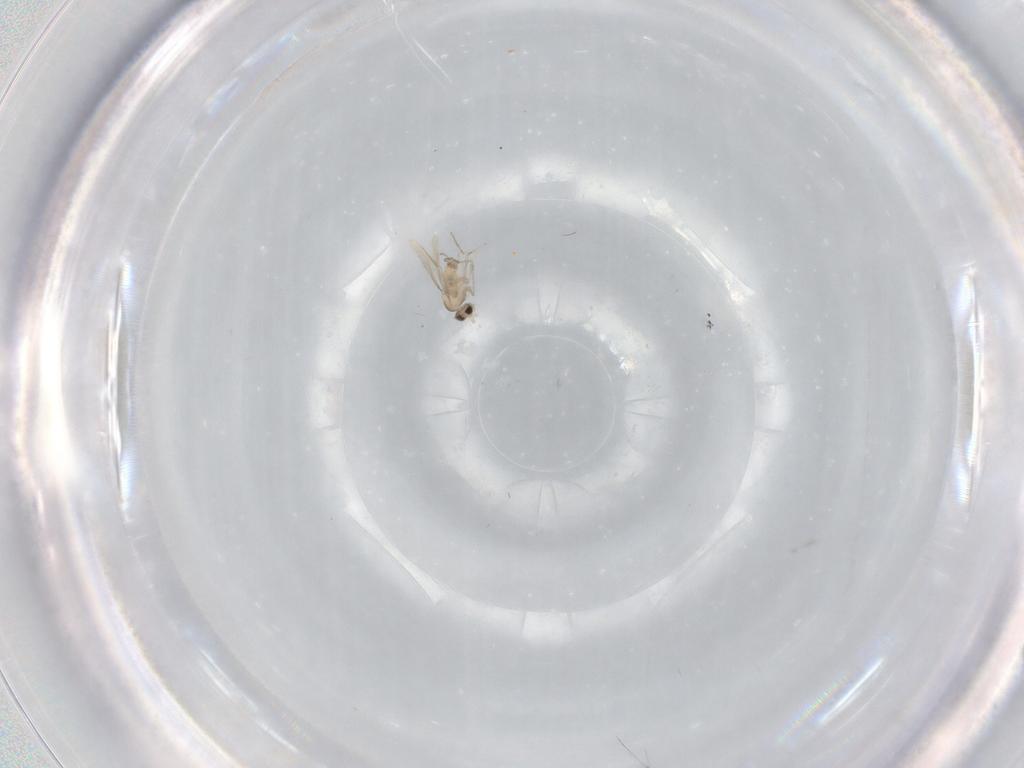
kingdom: Animalia
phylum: Arthropoda
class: Insecta
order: Diptera
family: Cecidomyiidae
